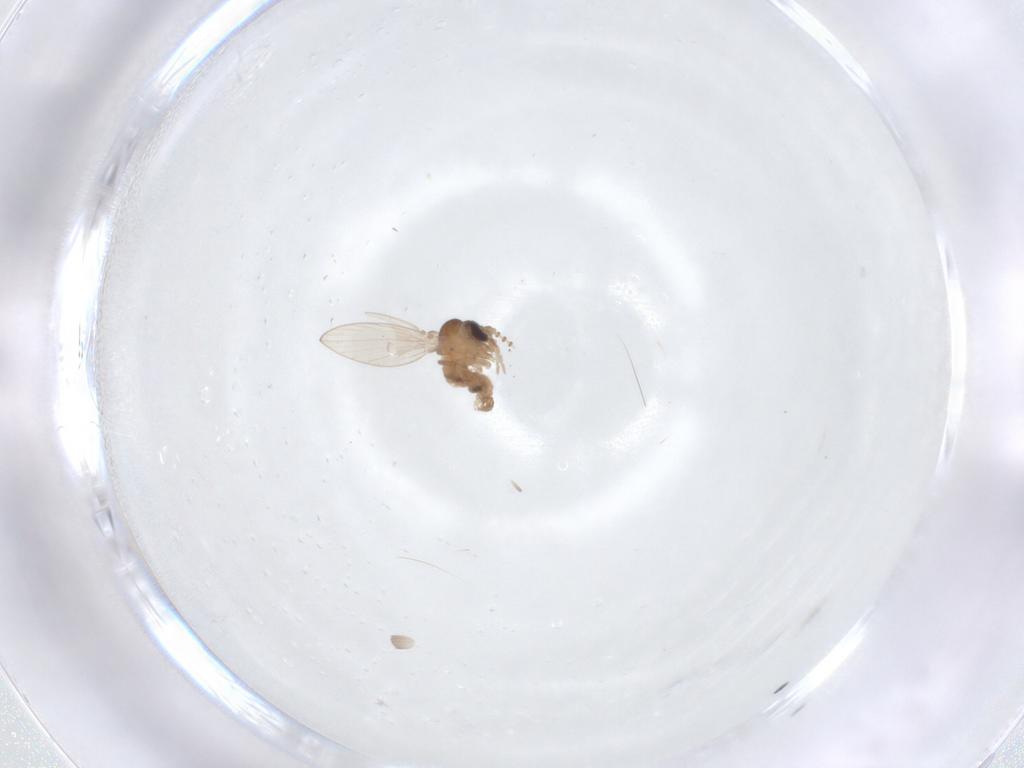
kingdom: Animalia
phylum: Arthropoda
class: Insecta
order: Diptera
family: Psychodidae
